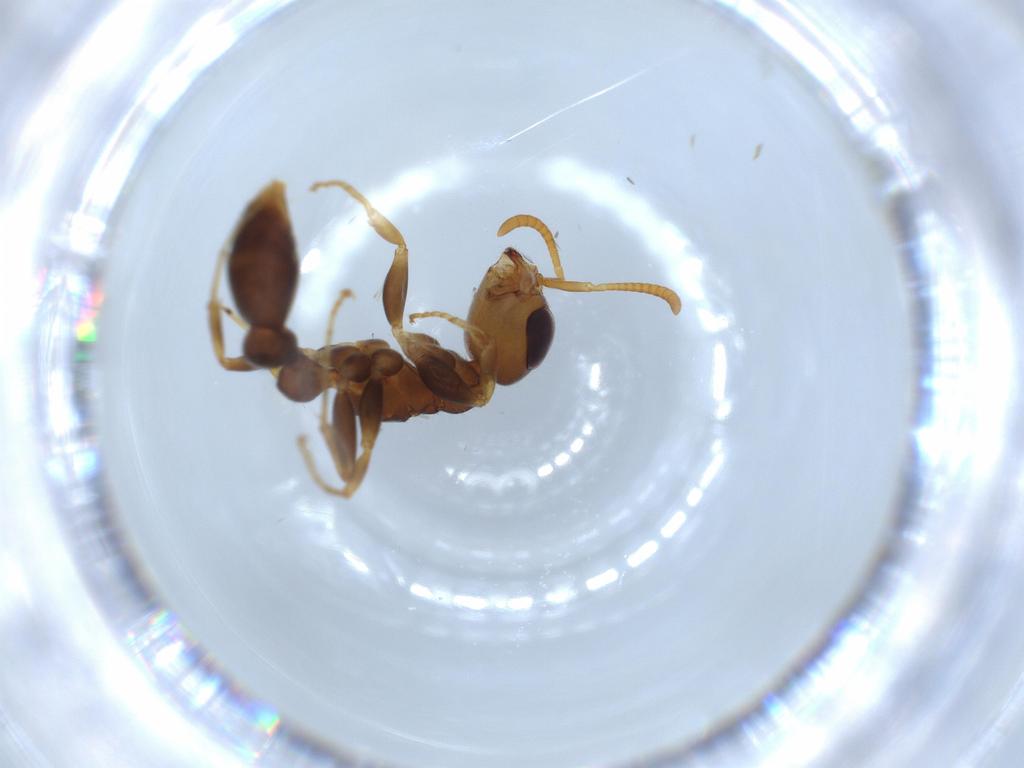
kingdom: Animalia
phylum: Arthropoda
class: Insecta
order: Hymenoptera
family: Formicidae
